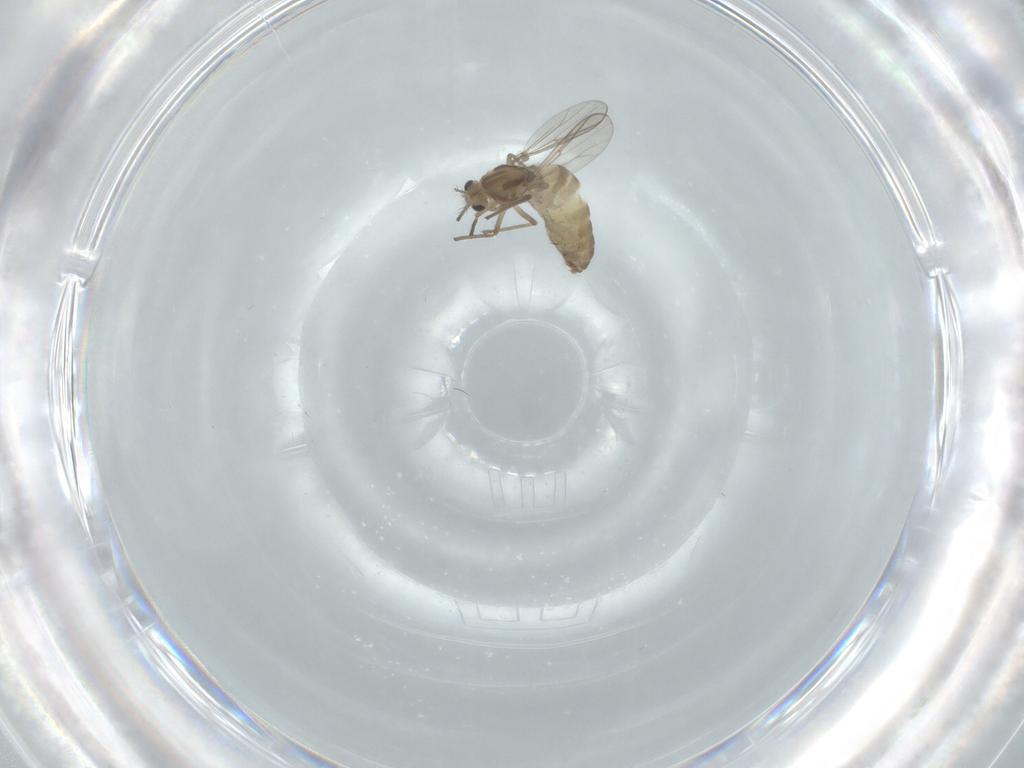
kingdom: Animalia
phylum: Arthropoda
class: Insecta
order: Diptera
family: Chironomidae
